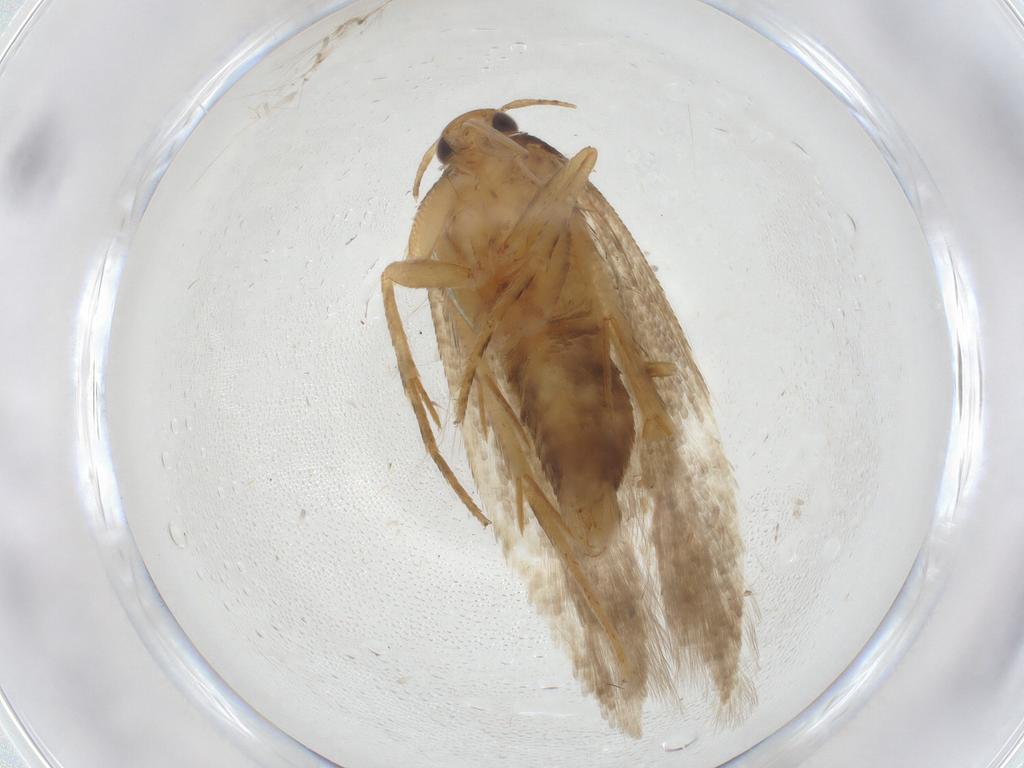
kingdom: Animalia
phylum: Arthropoda
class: Insecta
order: Lepidoptera
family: Gelechiidae
